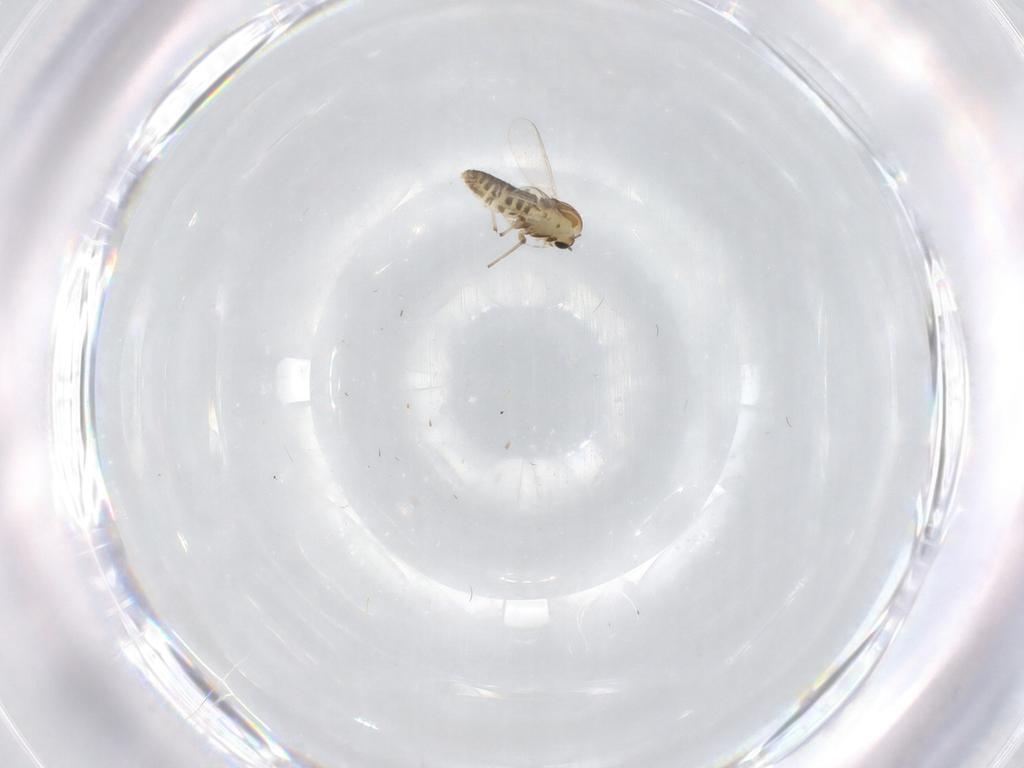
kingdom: Animalia
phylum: Arthropoda
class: Insecta
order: Diptera
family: Chironomidae
